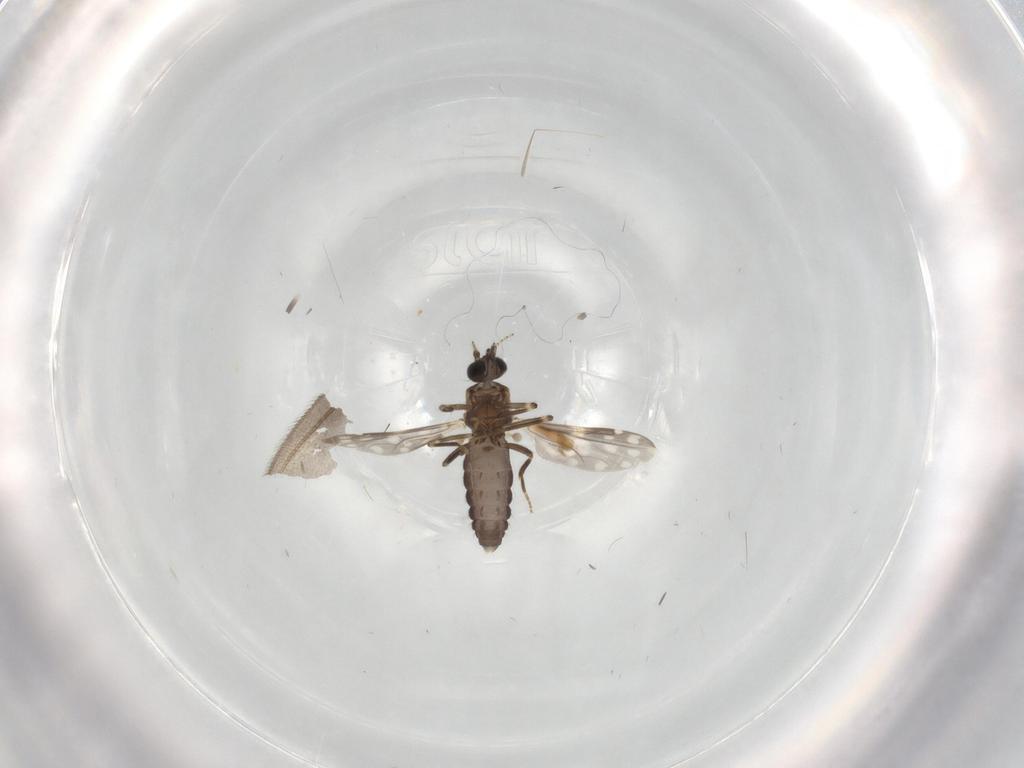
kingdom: Animalia
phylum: Arthropoda
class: Insecta
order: Diptera
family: Ceratopogonidae
